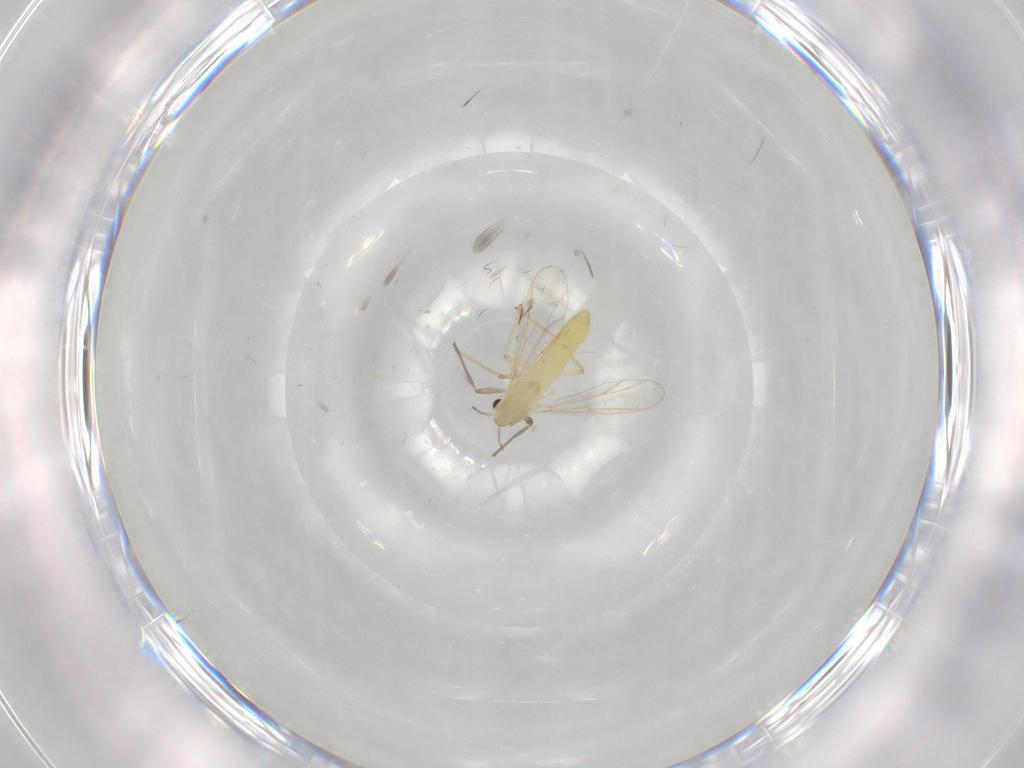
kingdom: Animalia
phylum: Arthropoda
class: Insecta
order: Diptera
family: Chironomidae
